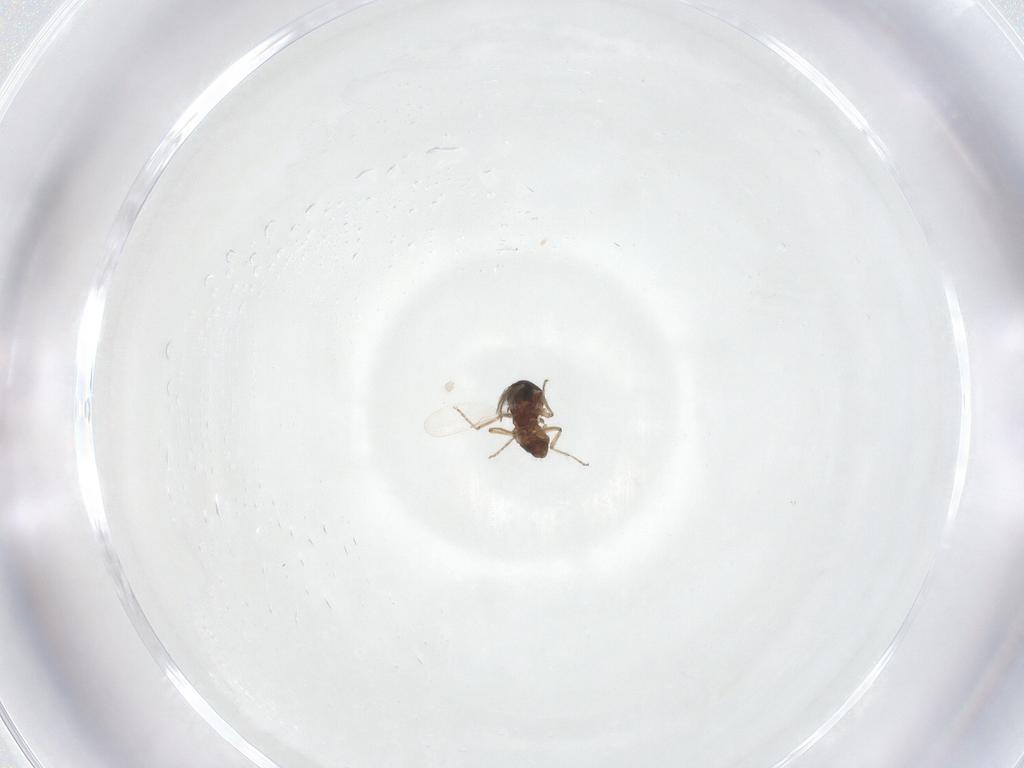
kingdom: Animalia
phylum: Arthropoda
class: Insecta
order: Diptera
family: Ceratopogonidae
